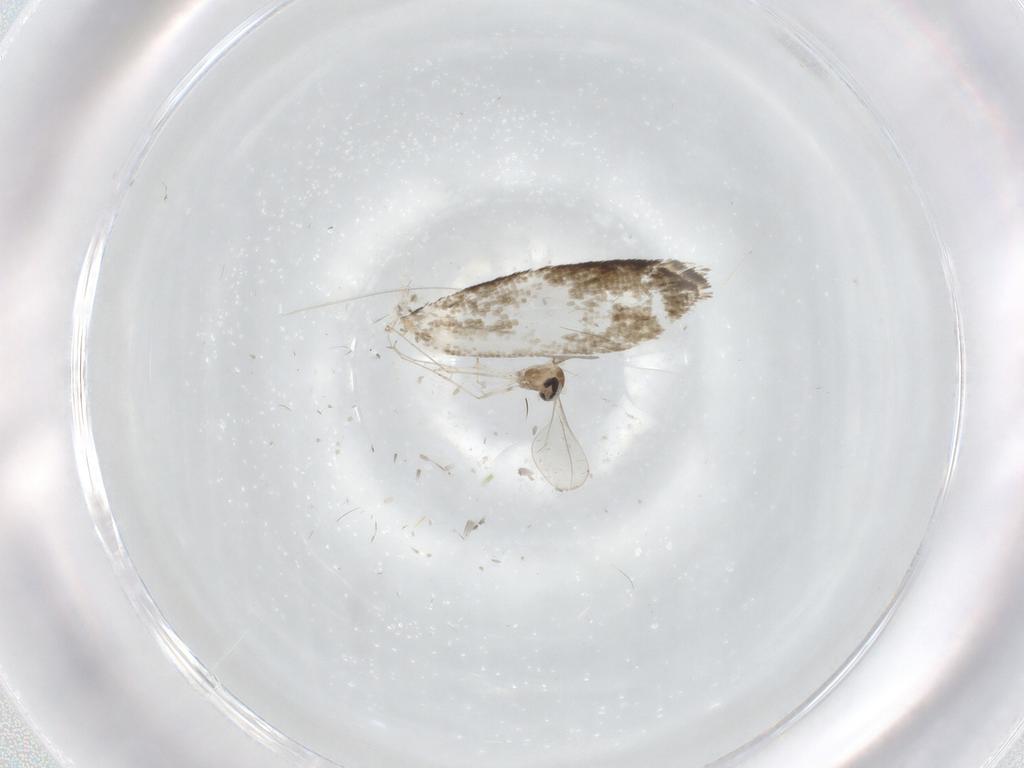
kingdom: Animalia
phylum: Arthropoda
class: Insecta
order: Diptera
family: Cecidomyiidae
